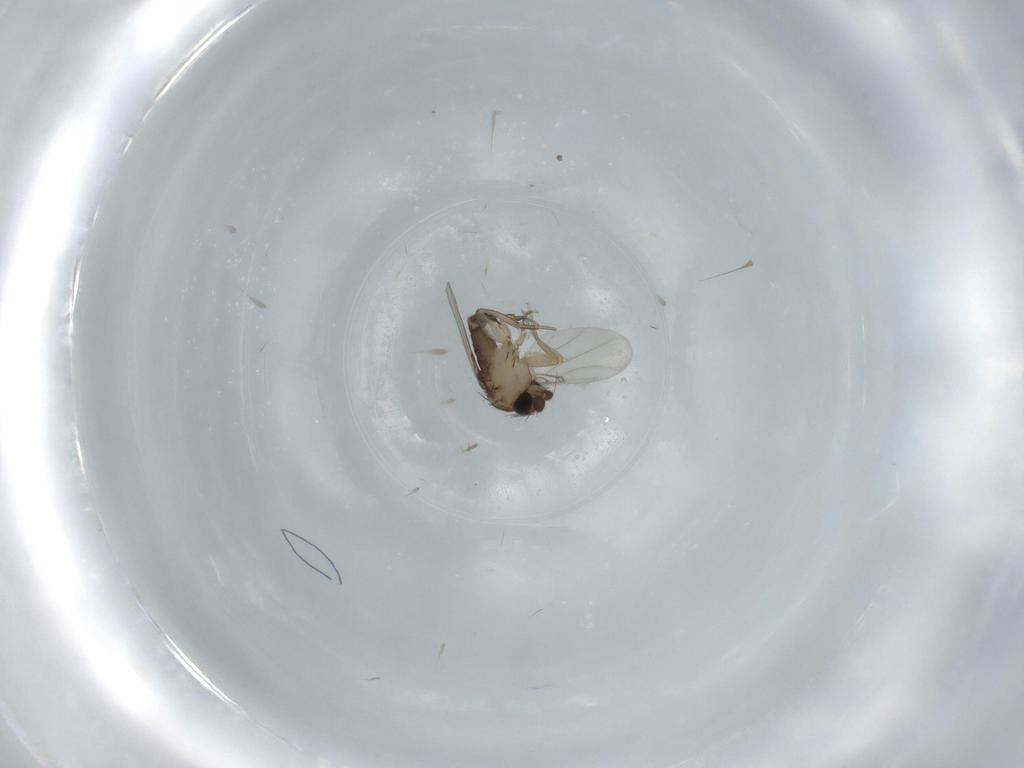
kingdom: Animalia
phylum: Arthropoda
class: Insecta
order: Diptera
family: Phoridae
